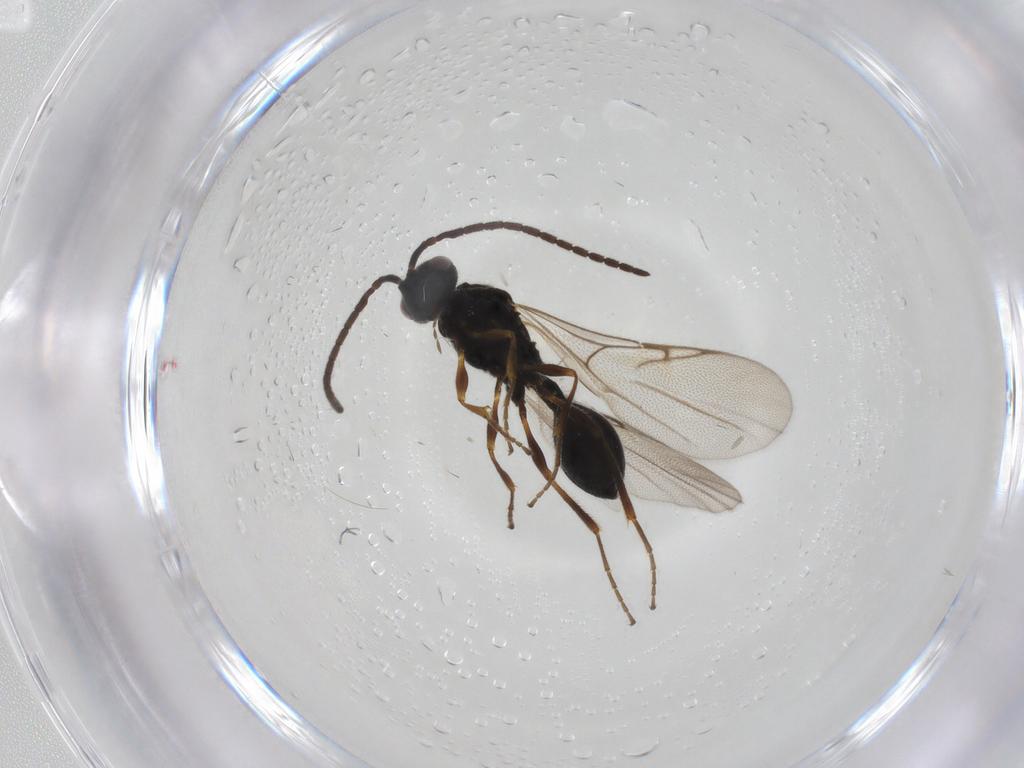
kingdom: Animalia
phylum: Arthropoda
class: Insecta
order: Hymenoptera
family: Diapriidae
